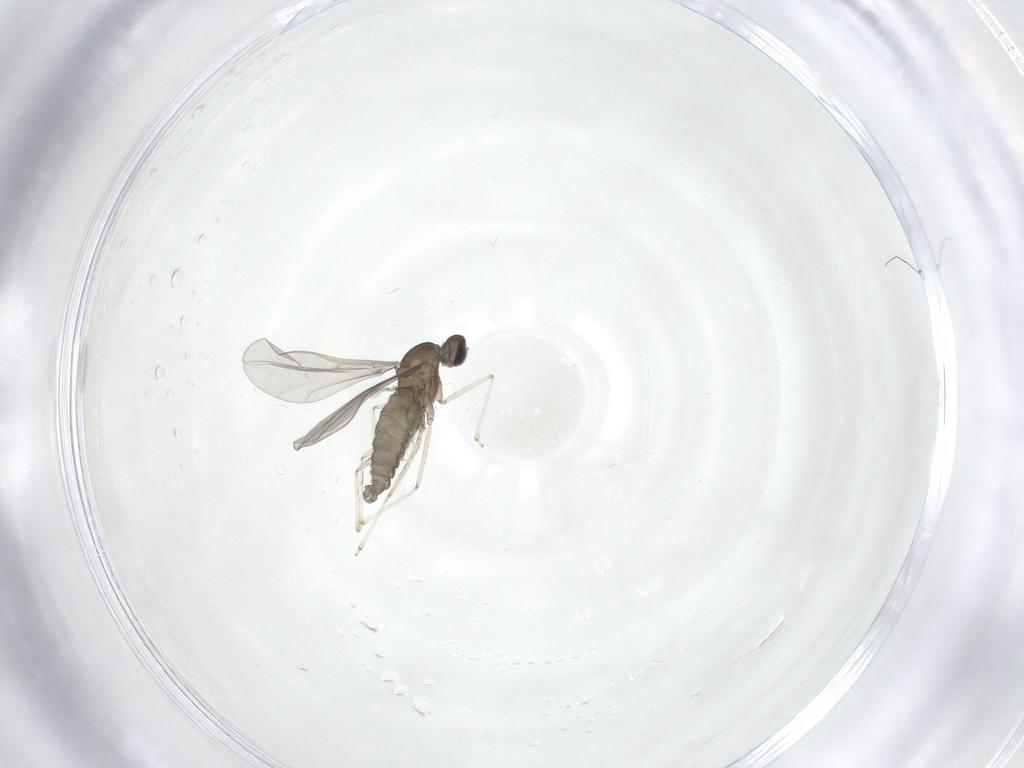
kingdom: Animalia
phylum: Arthropoda
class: Insecta
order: Diptera
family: Cecidomyiidae
